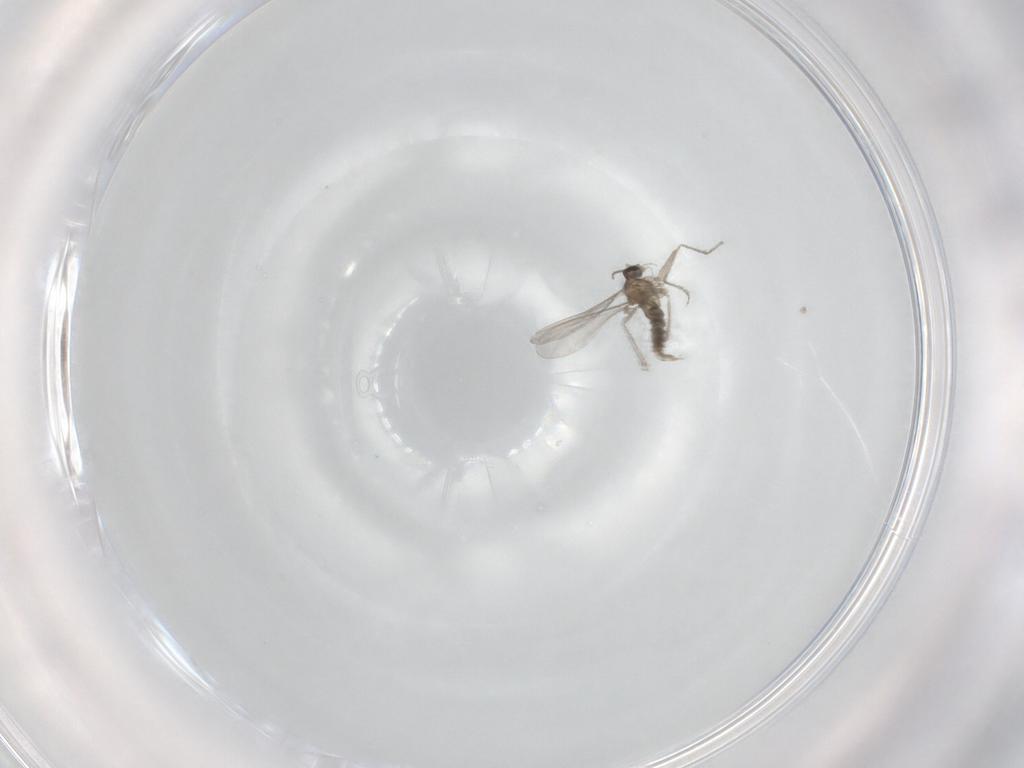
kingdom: Animalia
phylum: Arthropoda
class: Insecta
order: Diptera
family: Cecidomyiidae
